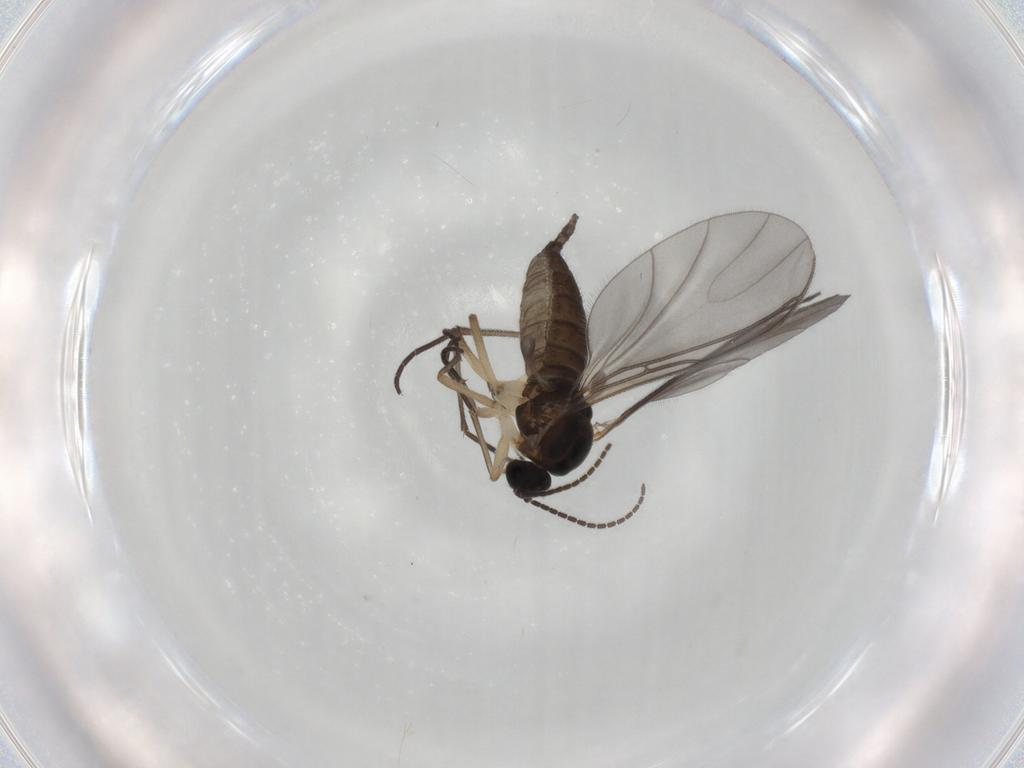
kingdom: Animalia
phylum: Arthropoda
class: Insecta
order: Diptera
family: Sciaridae
